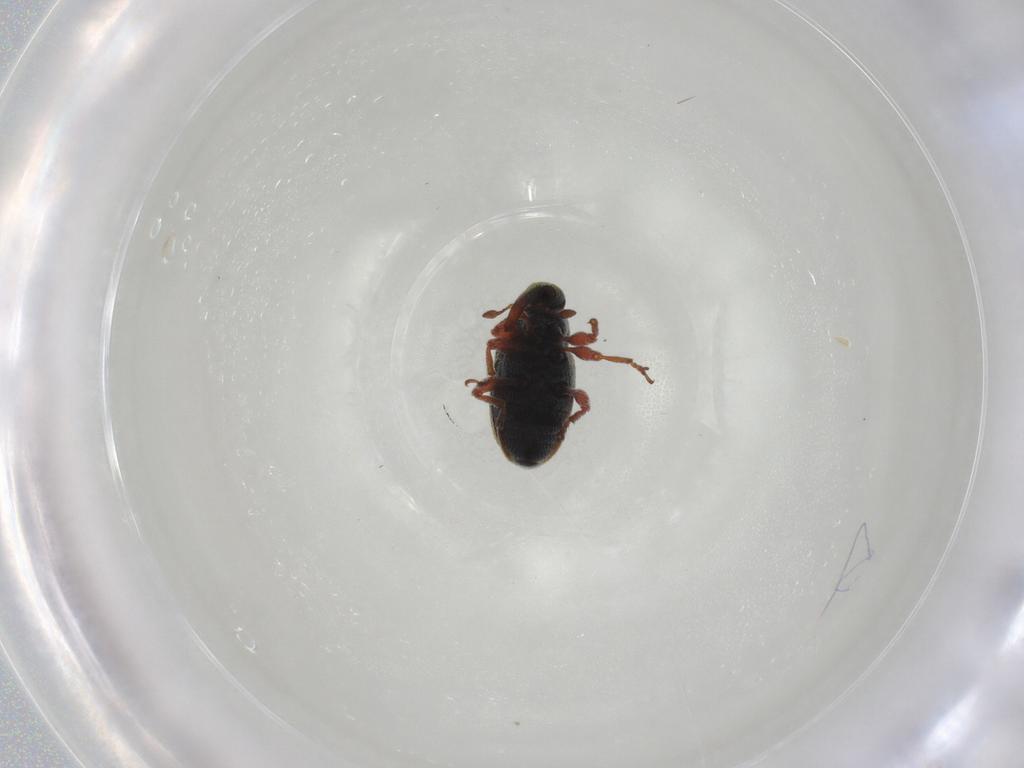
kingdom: Animalia
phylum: Arthropoda
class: Insecta
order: Coleoptera
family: Curculionidae
